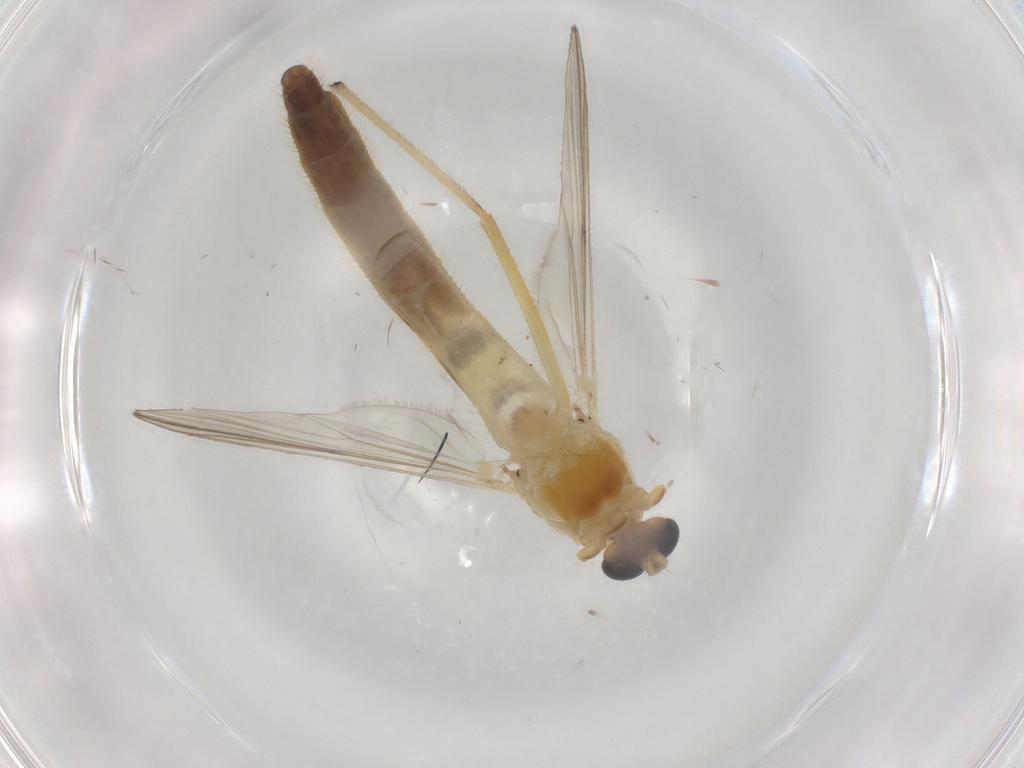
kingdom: Animalia
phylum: Arthropoda
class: Insecta
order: Diptera
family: Chironomidae
